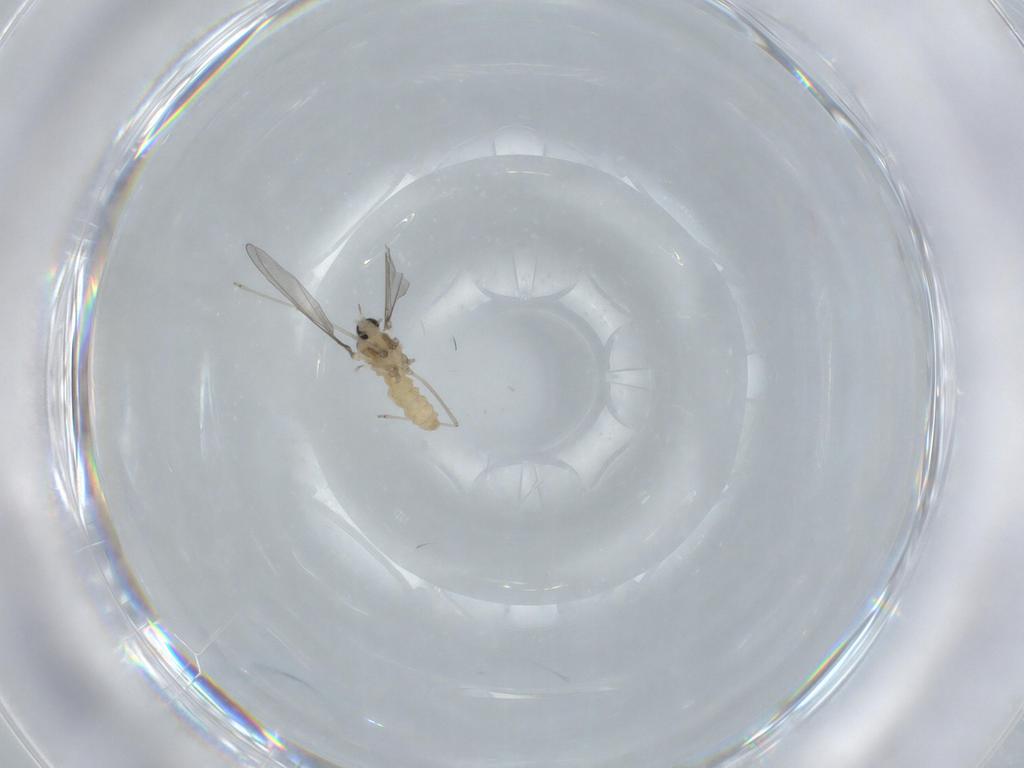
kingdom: Animalia
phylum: Arthropoda
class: Insecta
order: Diptera
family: Cecidomyiidae
